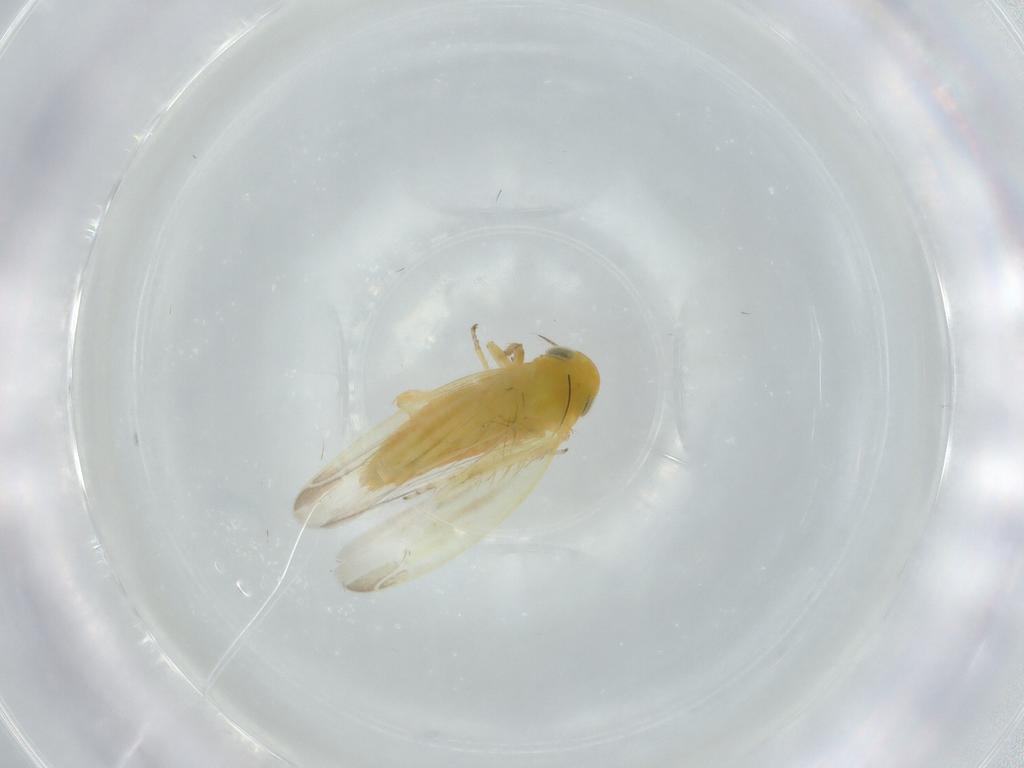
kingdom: Animalia
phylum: Arthropoda
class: Insecta
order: Hemiptera
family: Cicadellidae
